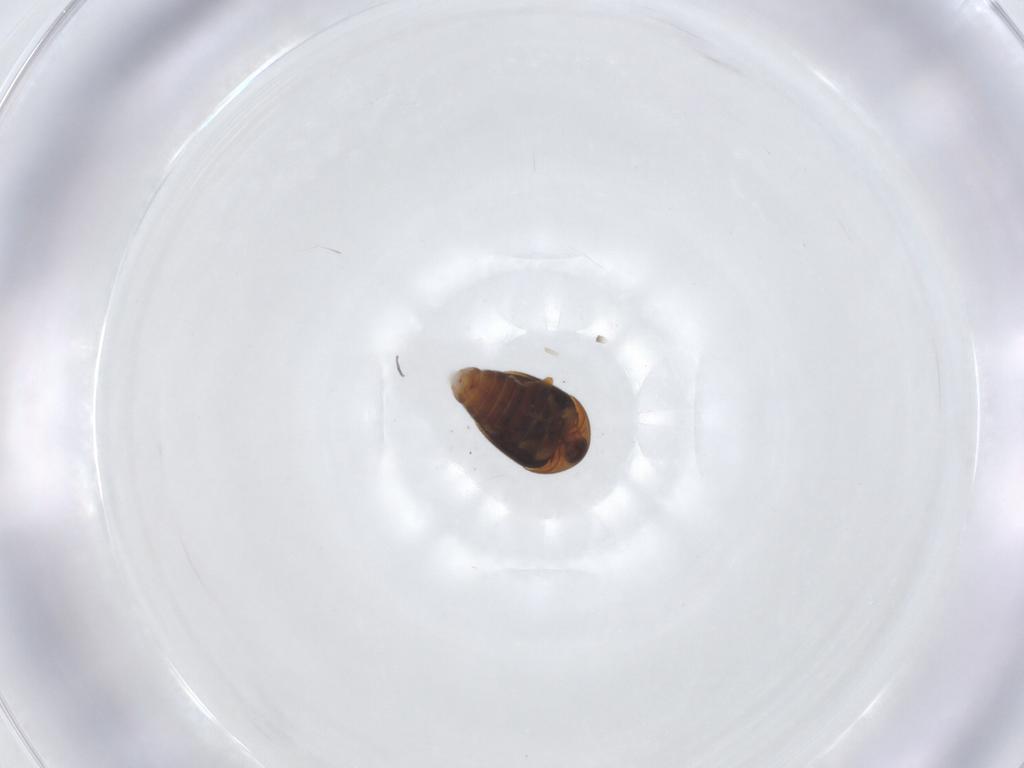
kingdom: Animalia
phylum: Arthropoda
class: Insecta
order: Coleoptera
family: Corylophidae
